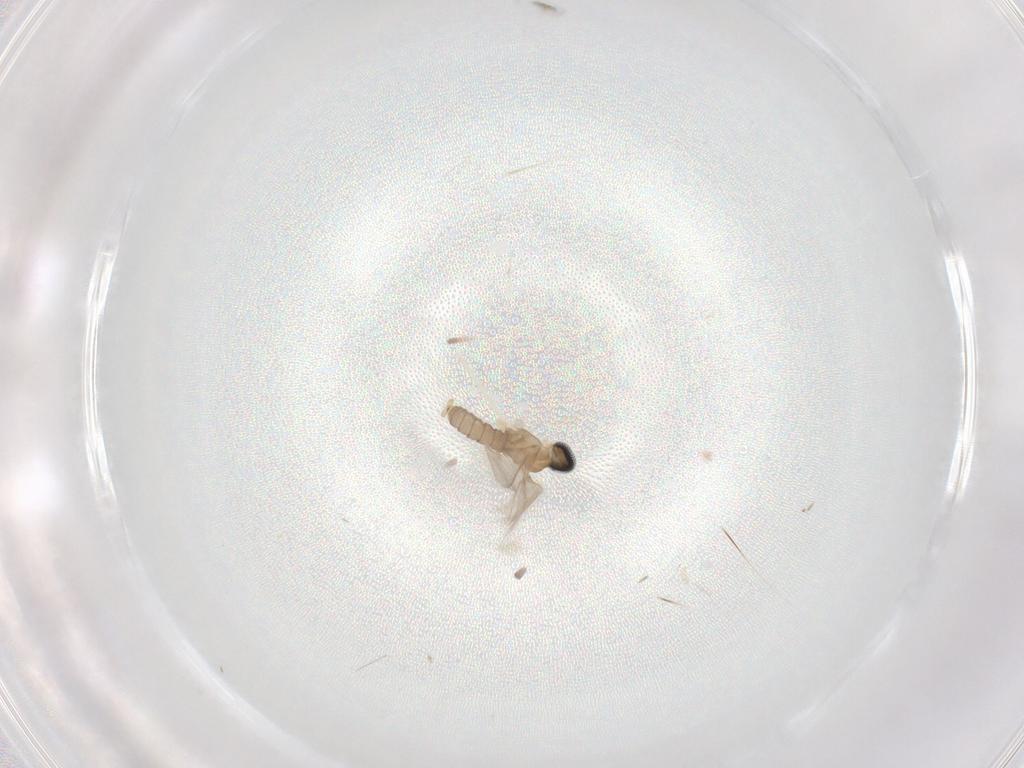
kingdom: Animalia
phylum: Arthropoda
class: Insecta
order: Diptera
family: Cecidomyiidae
